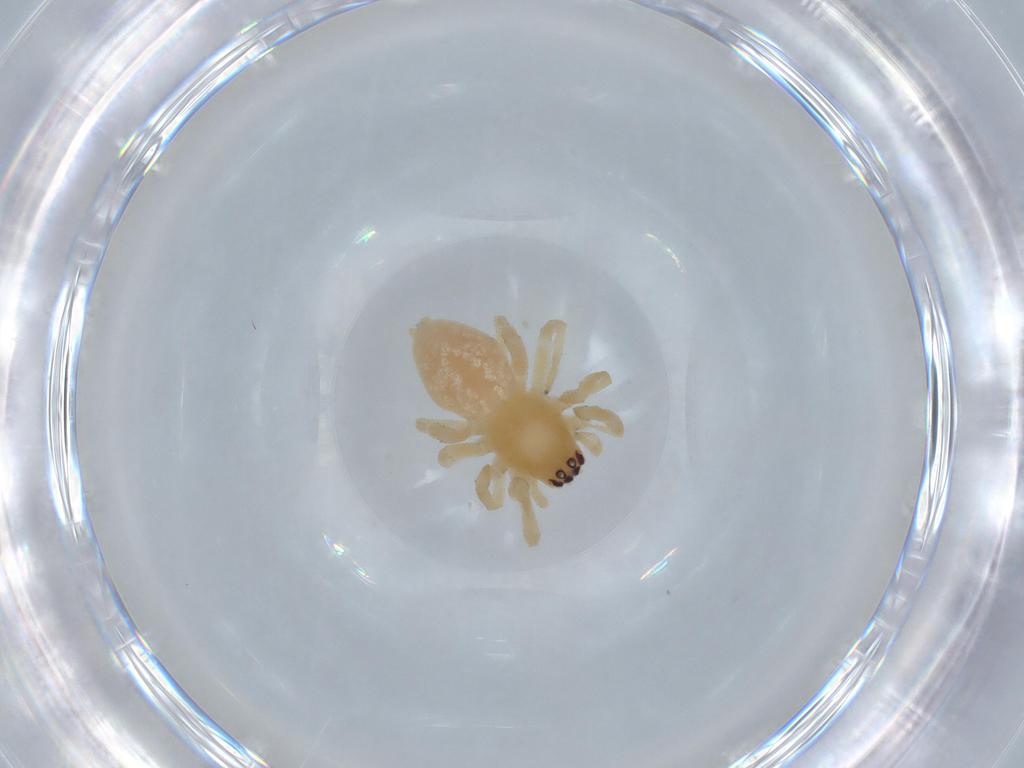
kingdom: Animalia
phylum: Arthropoda
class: Arachnida
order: Araneae
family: Cheiracanthiidae
